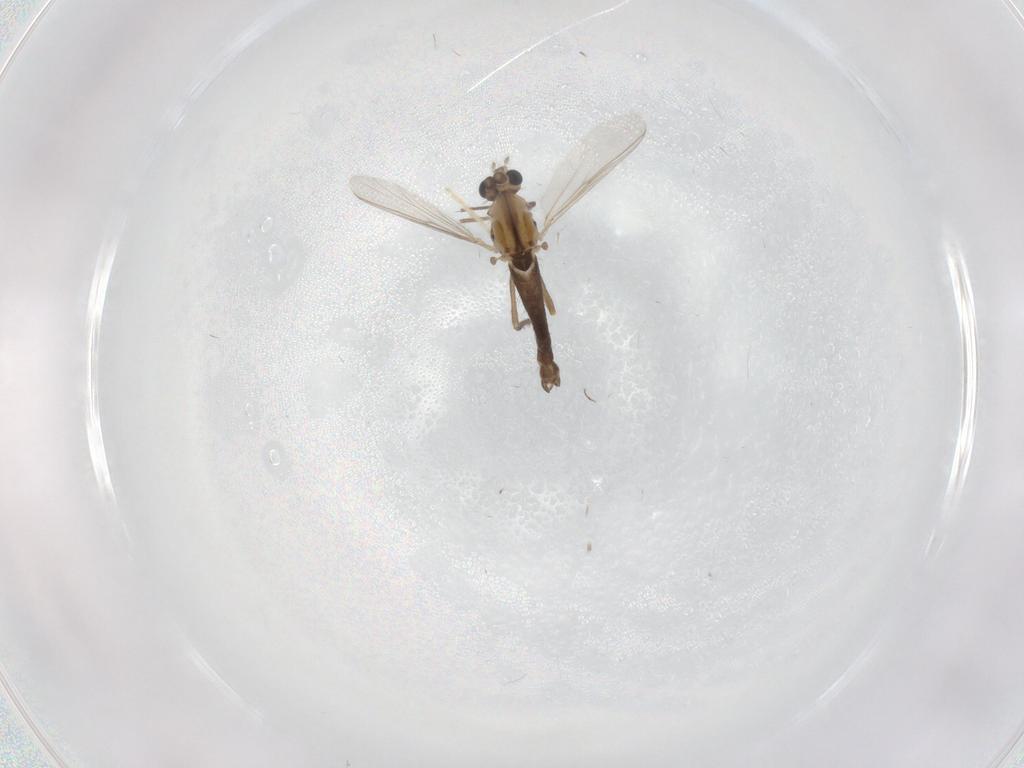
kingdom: Animalia
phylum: Arthropoda
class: Insecta
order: Diptera
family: Chironomidae
